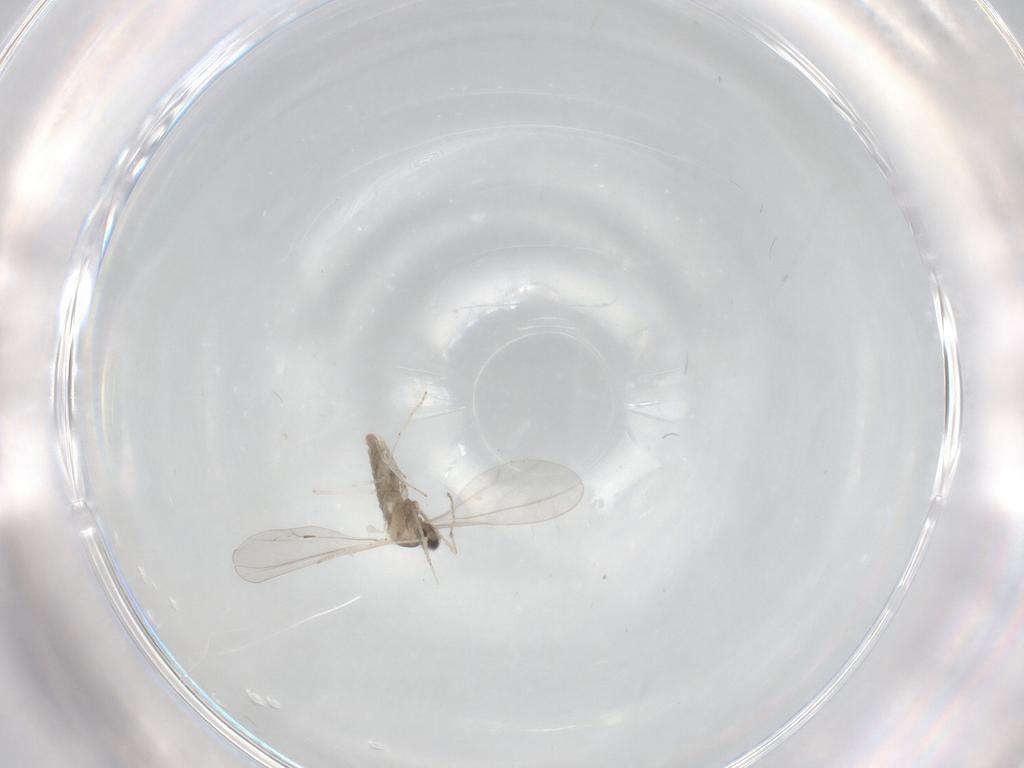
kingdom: Animalia
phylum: Arthropoda
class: Insecta
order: Diptera
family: Cecidomyiidae
